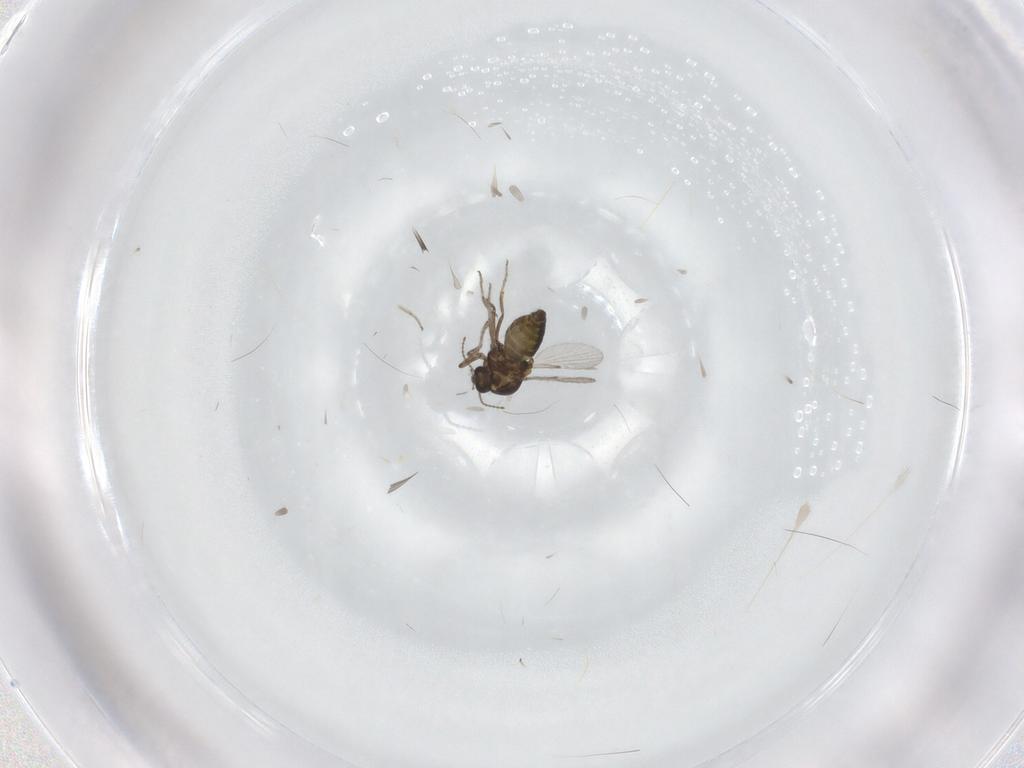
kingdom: Animalia
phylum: Arthropoda
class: Insecta
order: Diptera
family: Ceratopogonidae
